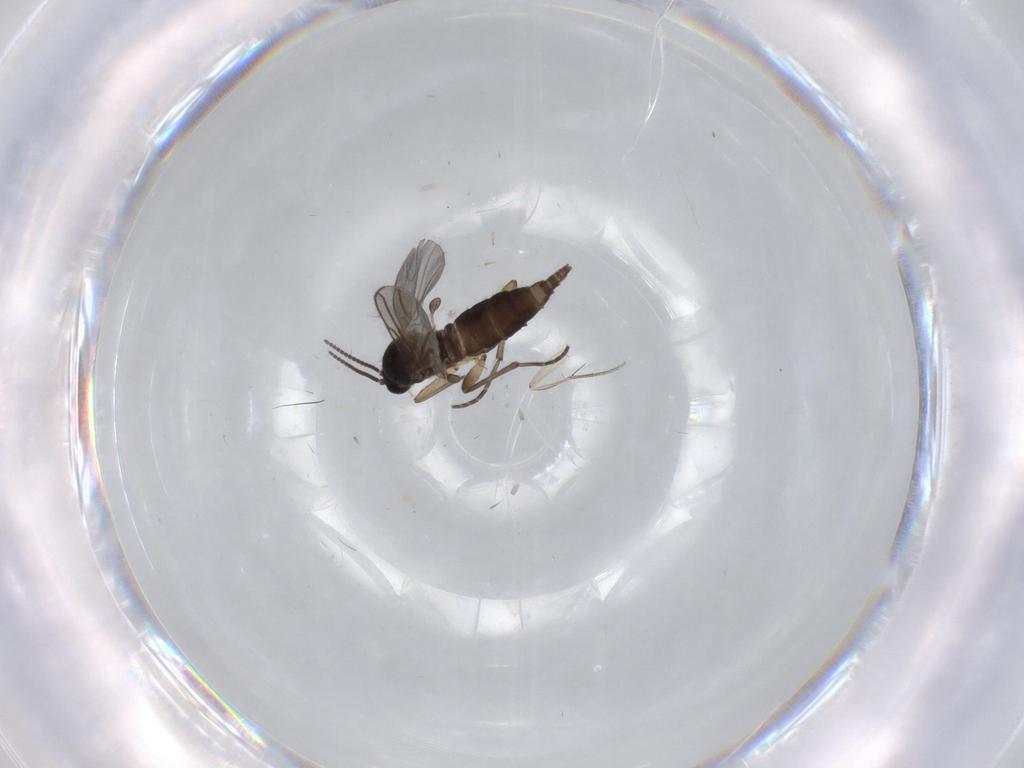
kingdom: Animalia
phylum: Arthropoda
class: Insecta
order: Diptera
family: Sciaridae
